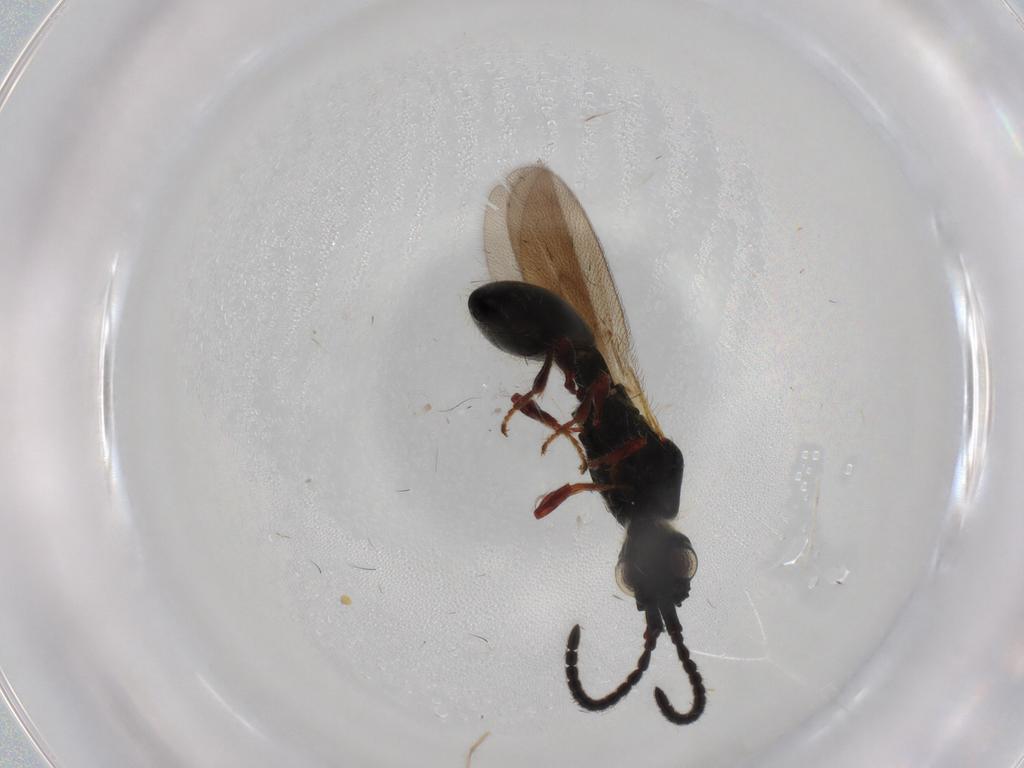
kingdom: Animalia
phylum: Arthropoda
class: Insecta
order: Hymenoptera
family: Diapriidae
